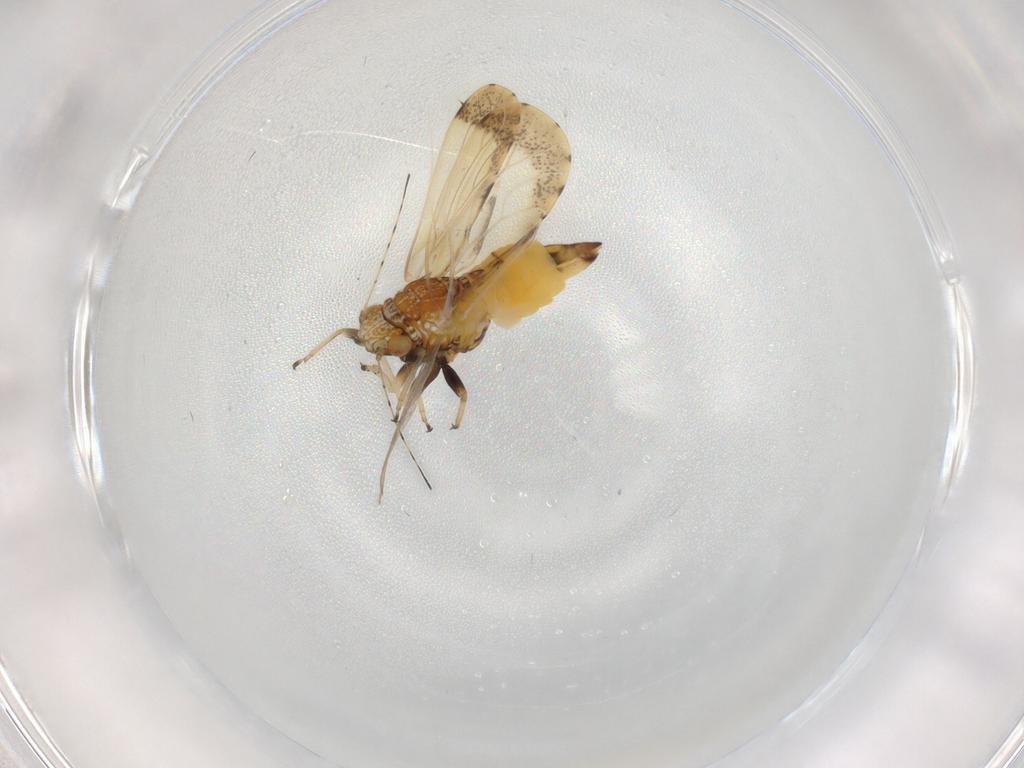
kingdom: Animalia
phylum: Arthropoda
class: Insecta
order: Hemiptera
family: Psyllidae
